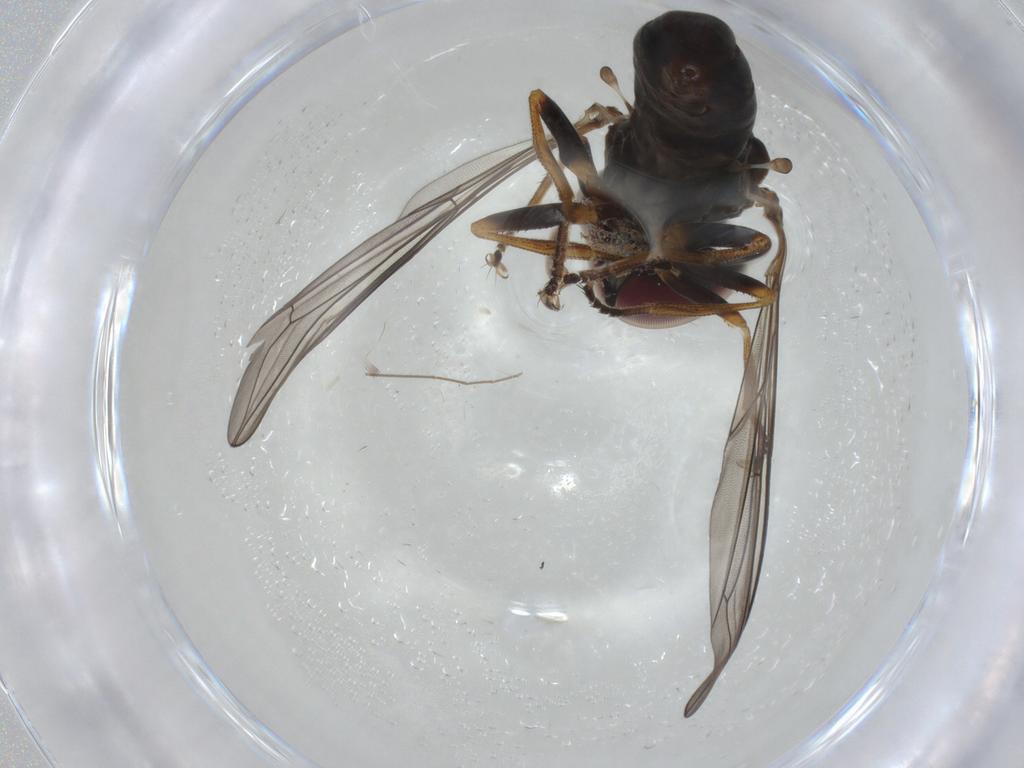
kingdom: Animalia
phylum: Arthropoda
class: Insecta
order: Diptera
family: Pipunculidae
